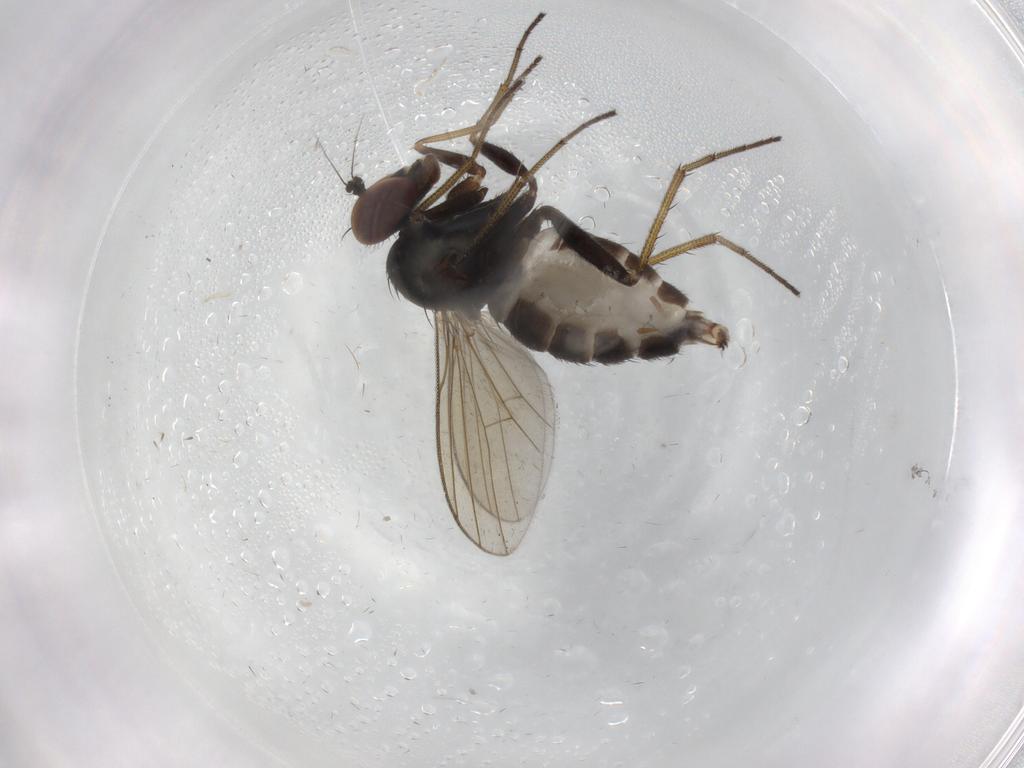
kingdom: Animalia
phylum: Arthropoda
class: Insecta
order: Diptera
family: Dolichopodidae
